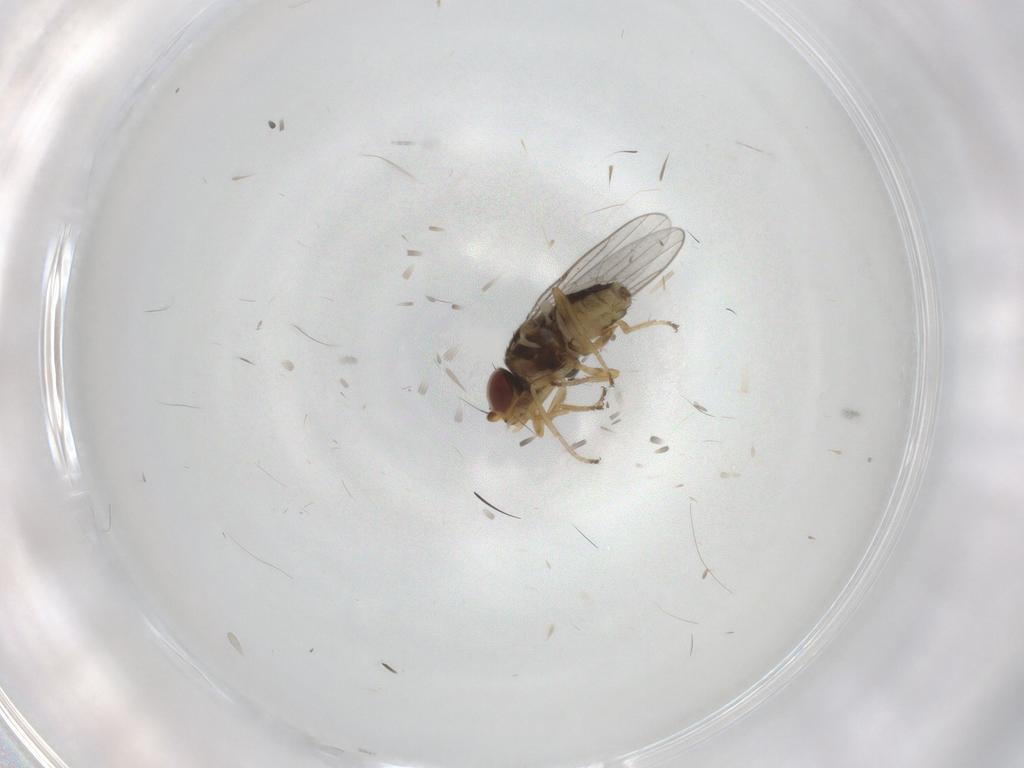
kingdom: Animalia
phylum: Arthropoda
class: Insecta
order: Diptera
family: Chloropidae
